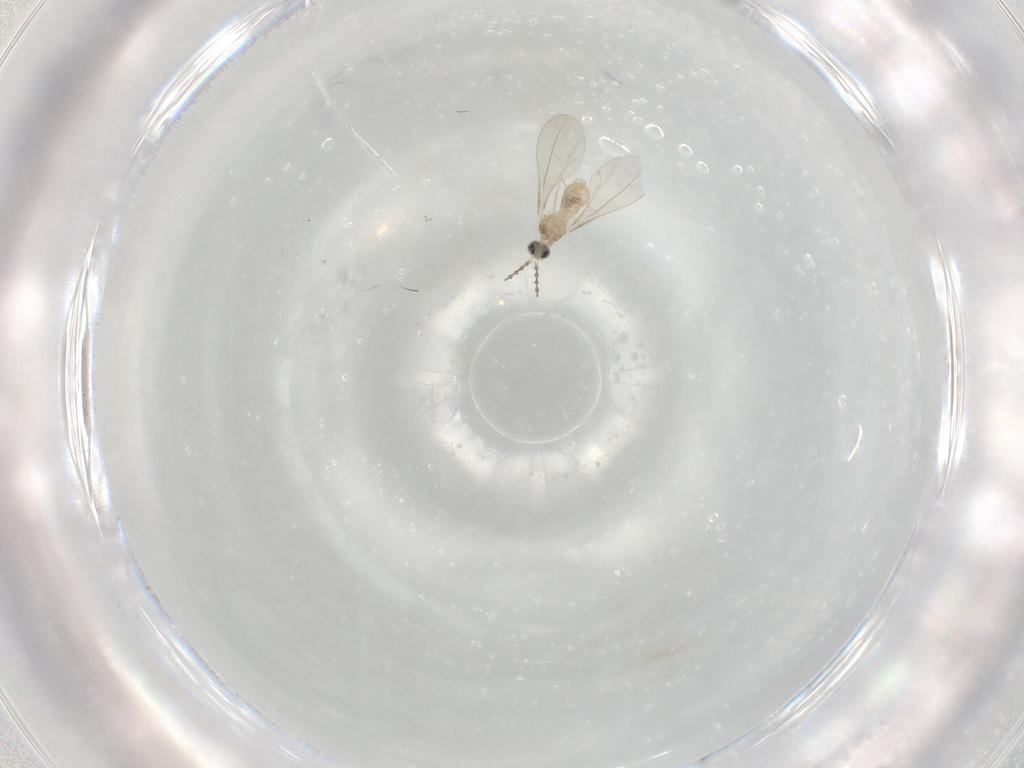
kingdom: Animalia
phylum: Arthropoda
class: Insecta
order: Diptera
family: Cecidomyiidae
